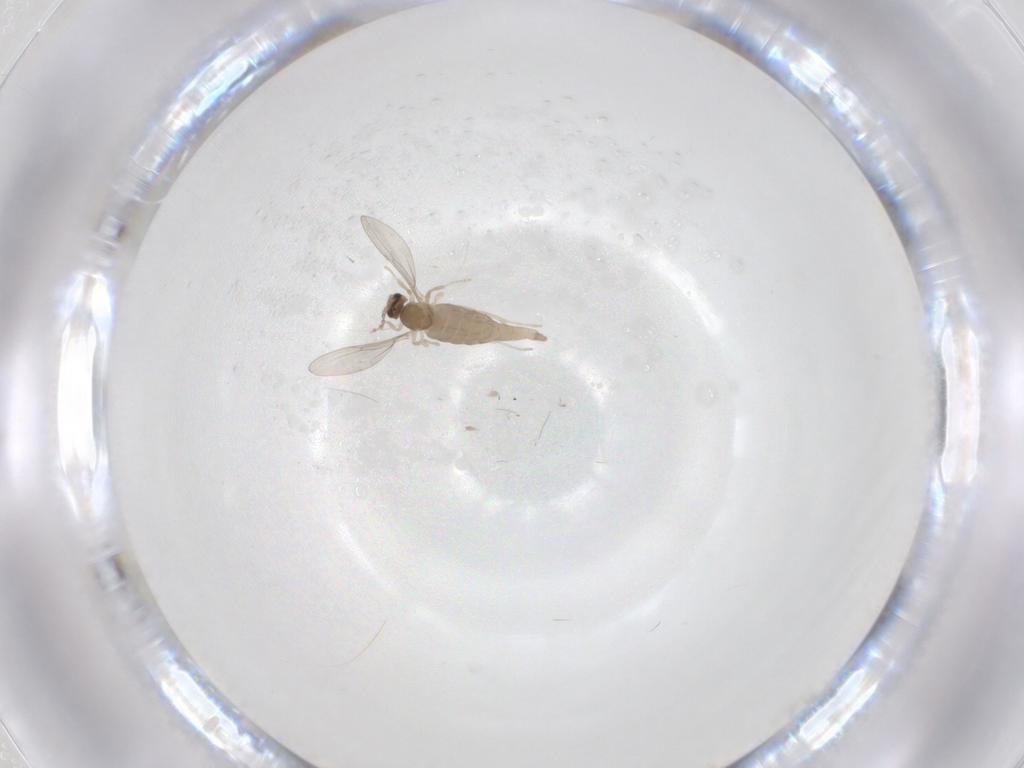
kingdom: Animalia
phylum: Arthropoda
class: Insecta
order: Diptera
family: Cecidomyiidae
